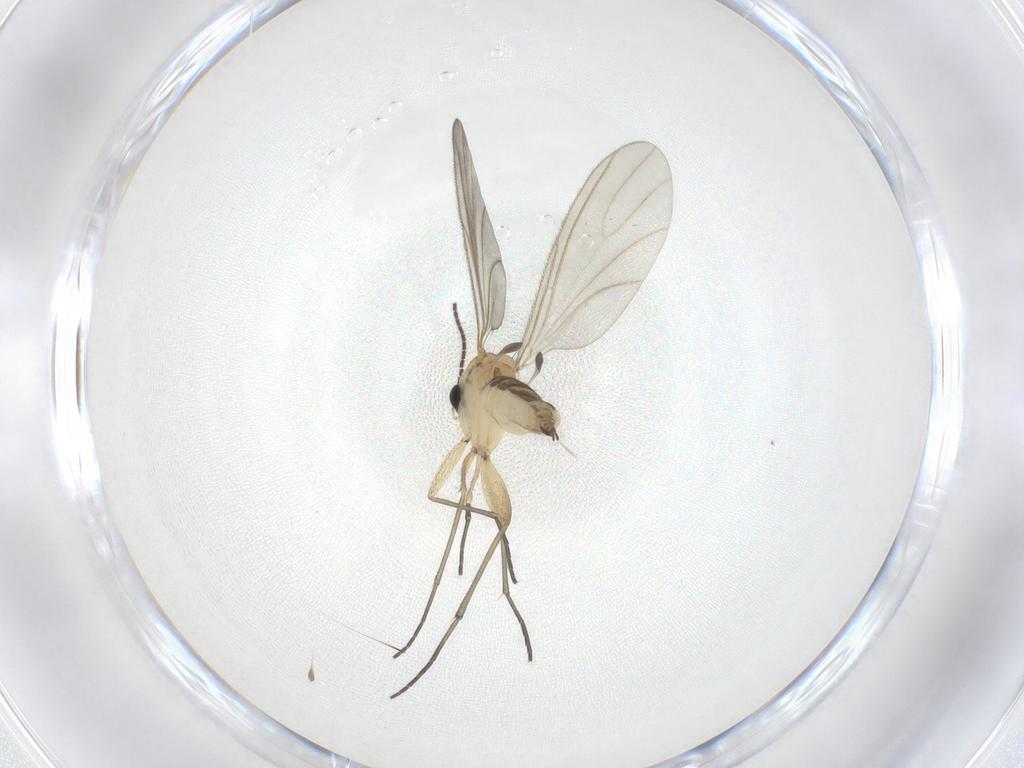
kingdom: Animalia
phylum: Arthropoda
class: Insecta
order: Diptera
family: Sciaridae
